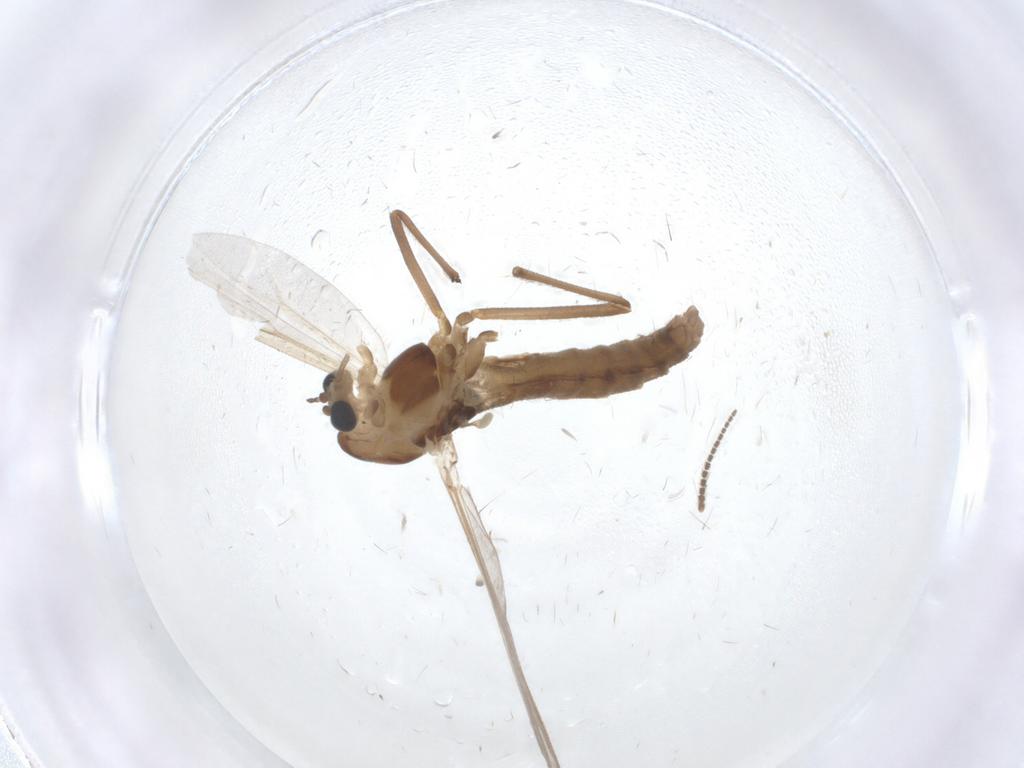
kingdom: Animalia
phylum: Arthropoda
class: Insecta
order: Diptera
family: Chironomidae
